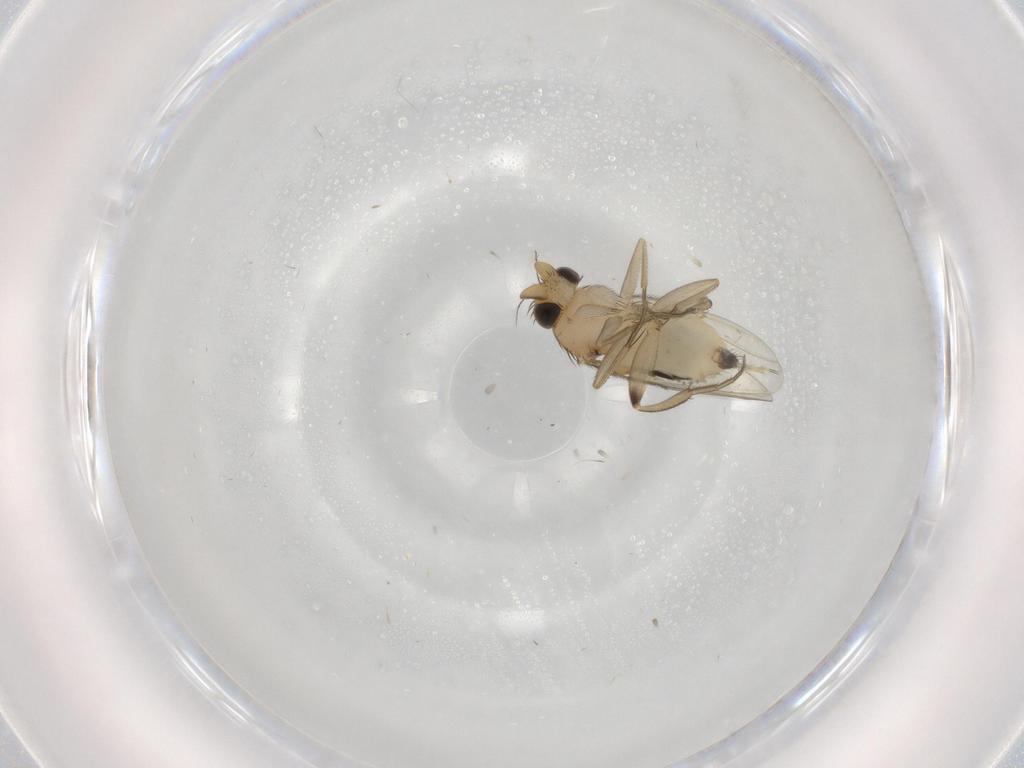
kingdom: Animalia
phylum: Arthropoda
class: Insecta
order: Diptera
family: Phoridae
